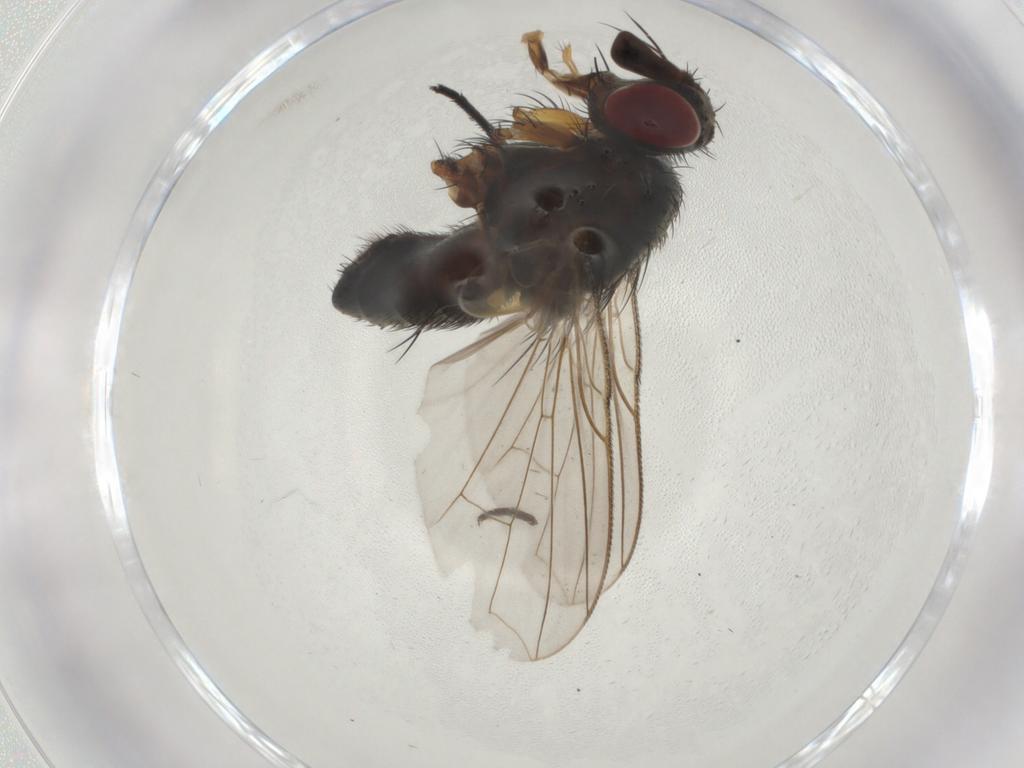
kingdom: Animalia
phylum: Arthropoda
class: Insecta
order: Diptera
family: Tachinidae
